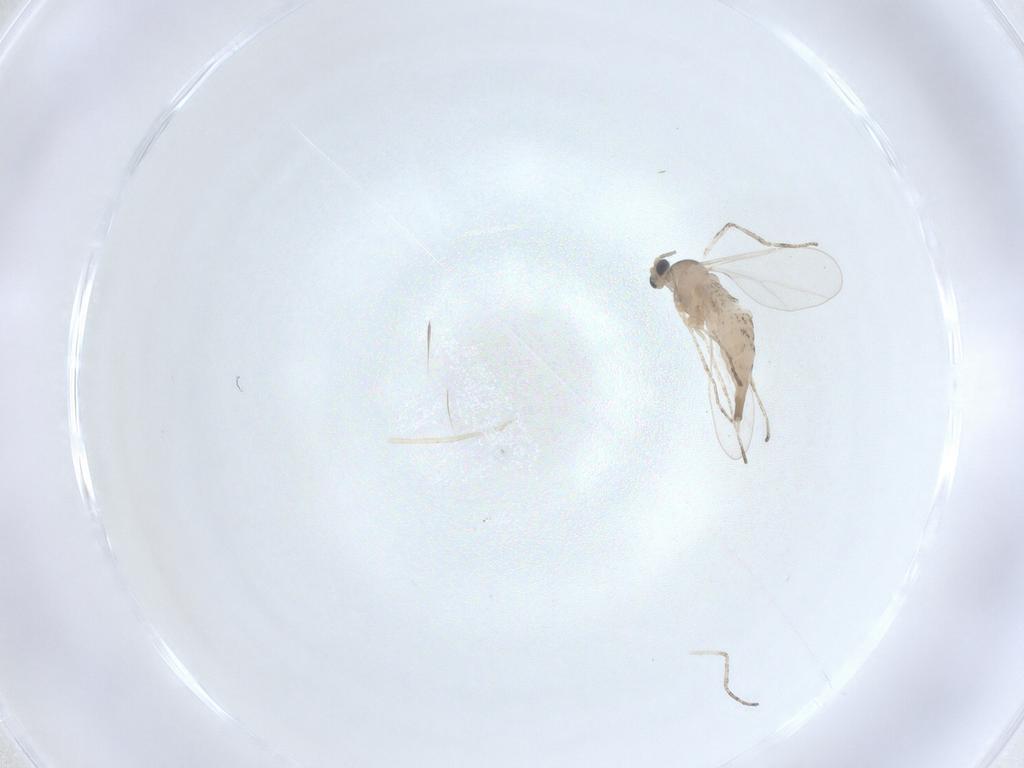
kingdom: Animalia
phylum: Arthropoda
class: Insecta
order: Diptera
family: Cecidomyiidae
